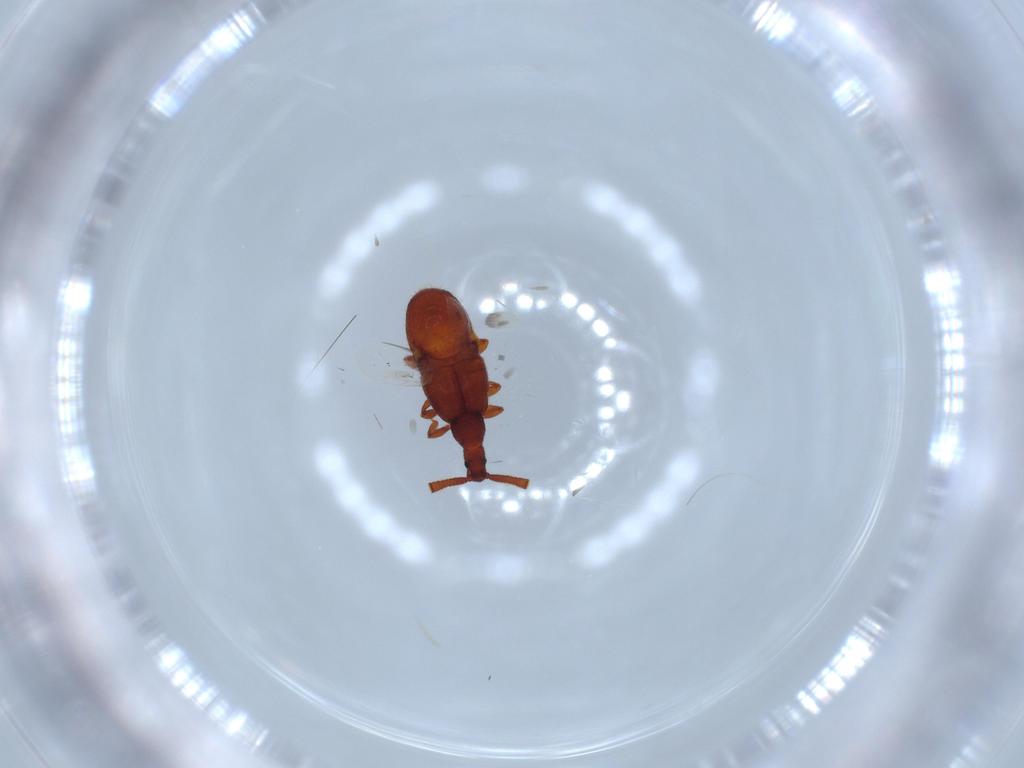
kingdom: Animalia
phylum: Arthropoda
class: Insecta
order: Coleoptera
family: Staphylinidae
